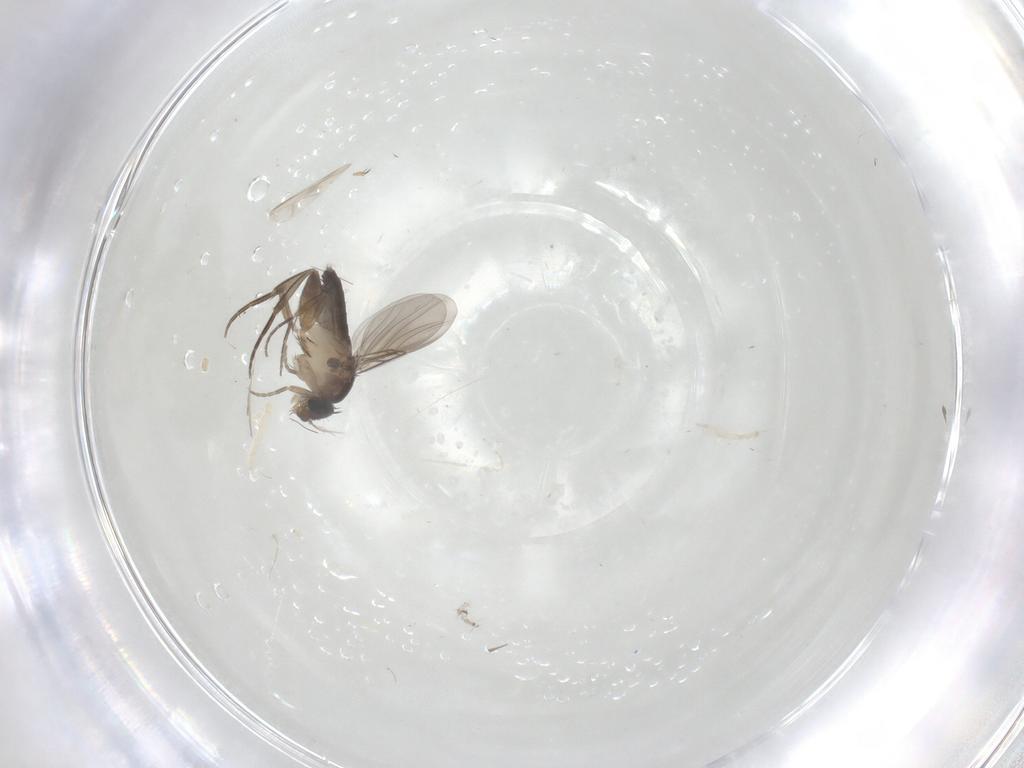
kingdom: Animalia
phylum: Arthropoda
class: Insecta
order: Diptera
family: Phoridae
